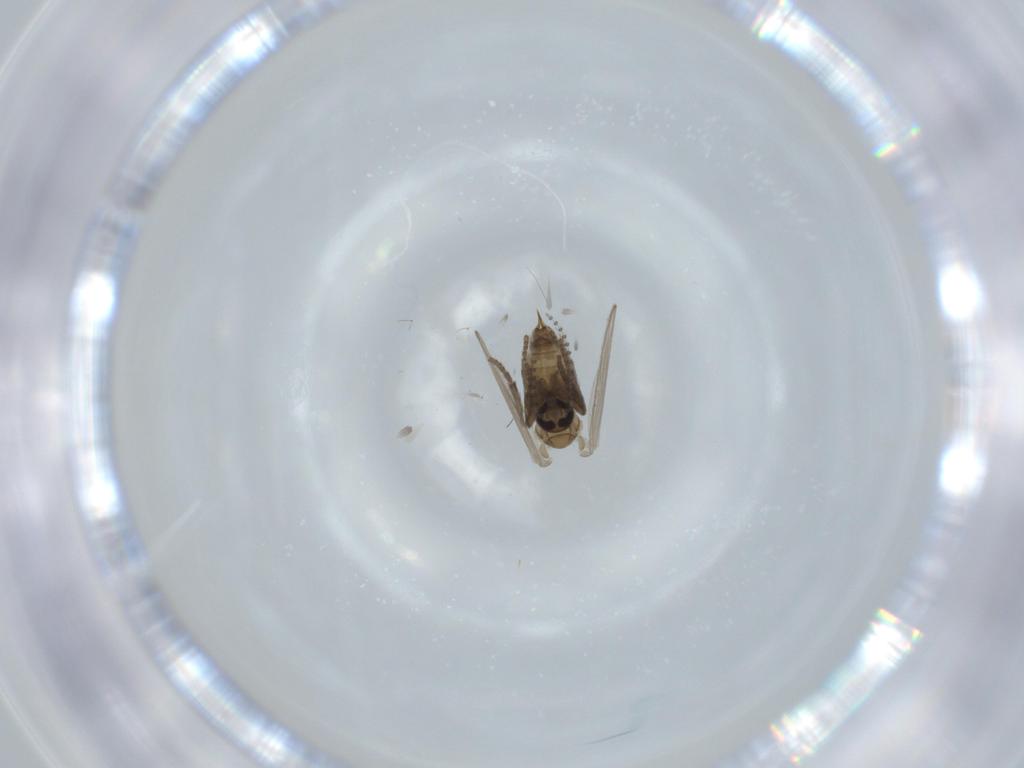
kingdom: Animalia
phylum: Arthropoda
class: Insecta
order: Diptera
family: Psychodidae
